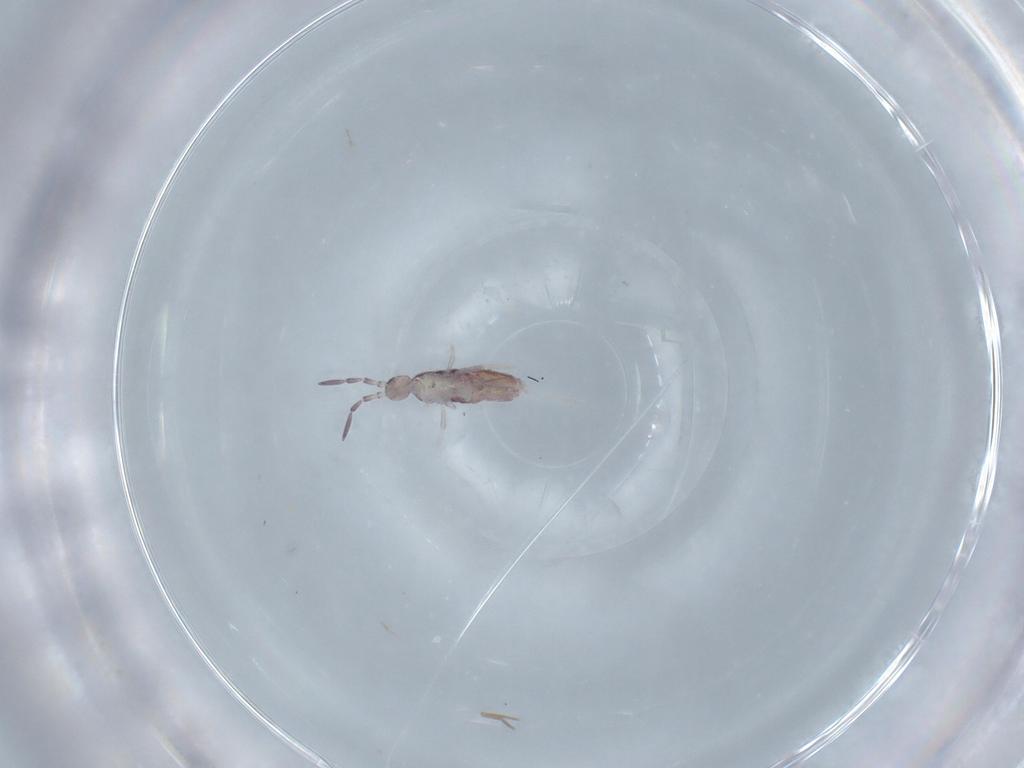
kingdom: Animalia
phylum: Arthropoda
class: Collembola
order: Poduromorpha
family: Hypogastruridae
